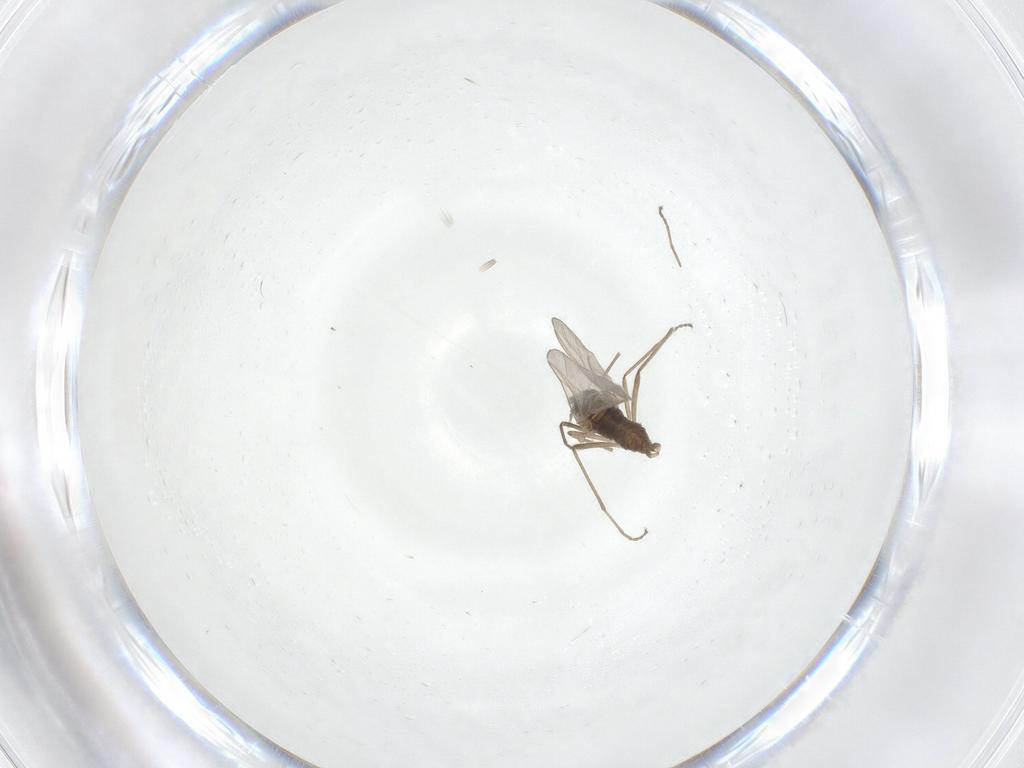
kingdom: Animalia
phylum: Arthropoda
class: Insecta
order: Diptera
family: Cecidomyiidae
